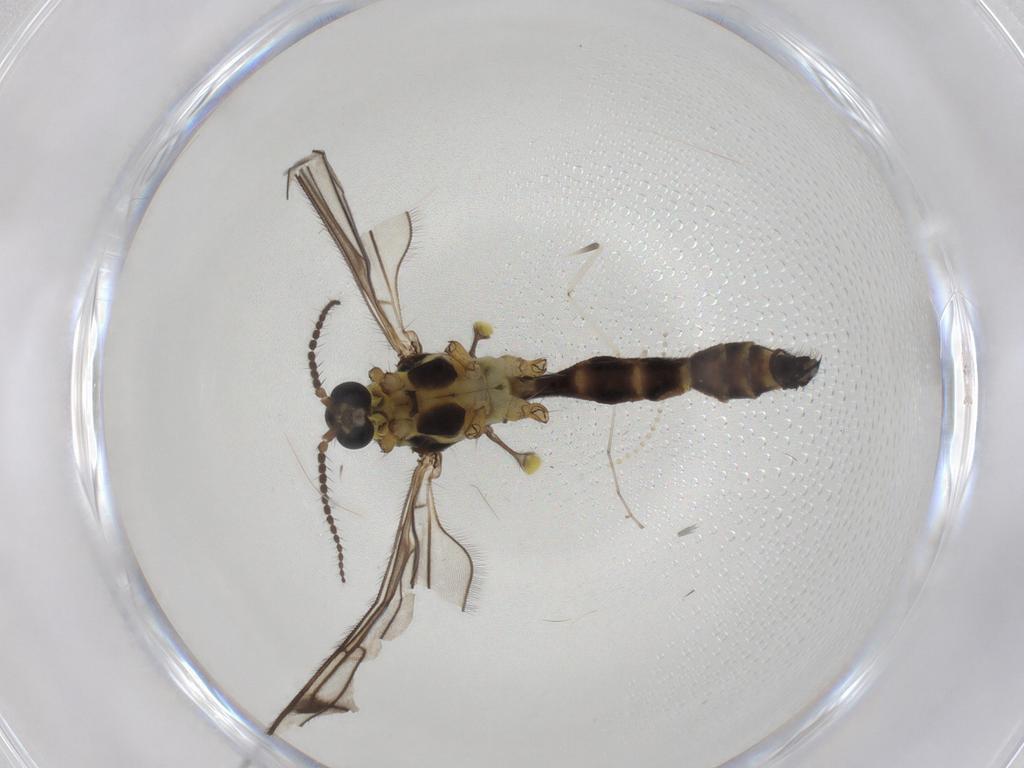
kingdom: Animalia
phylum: Arthropoda
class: Insecta
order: Diptera
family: Limoniidae
